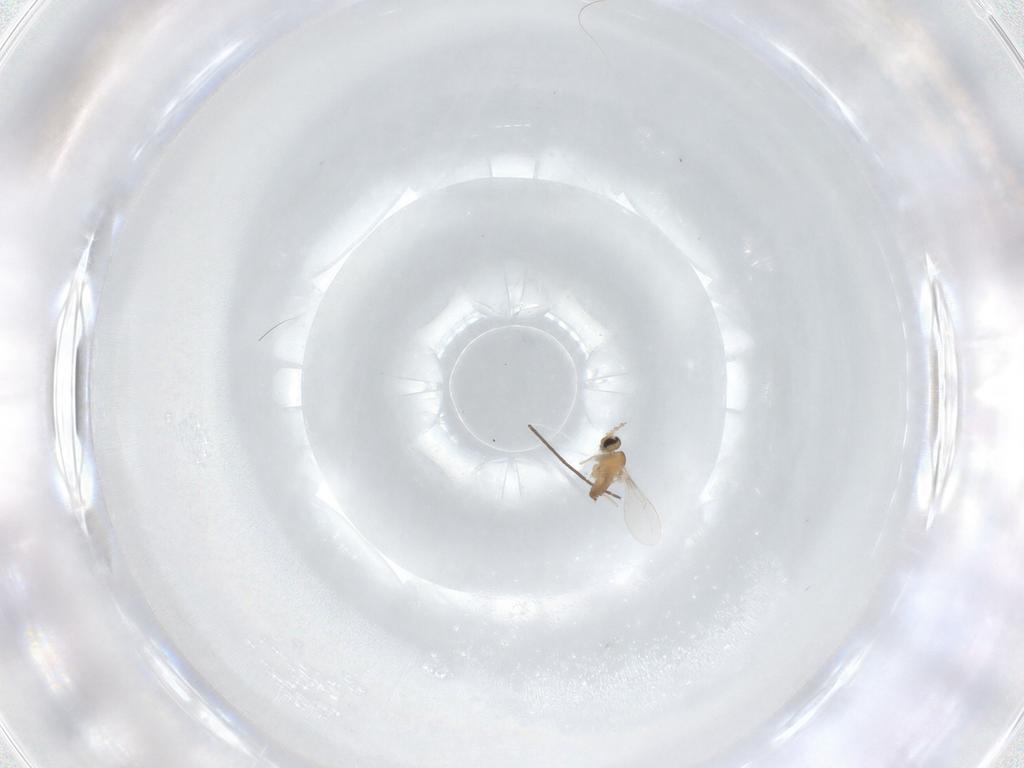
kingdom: Animalia
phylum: Arthropoda
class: Insecta
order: Diptera
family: Cecidomyiidae
